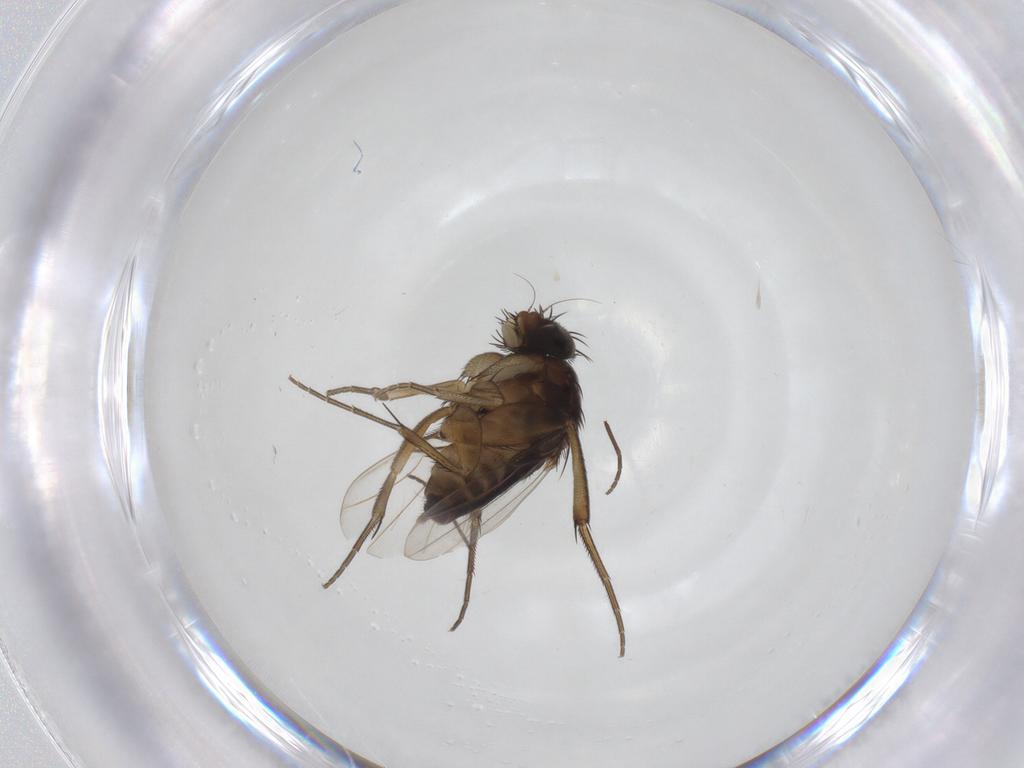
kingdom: Animalia
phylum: Arthropoda
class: Insecta
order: Diptera
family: Phoridae
